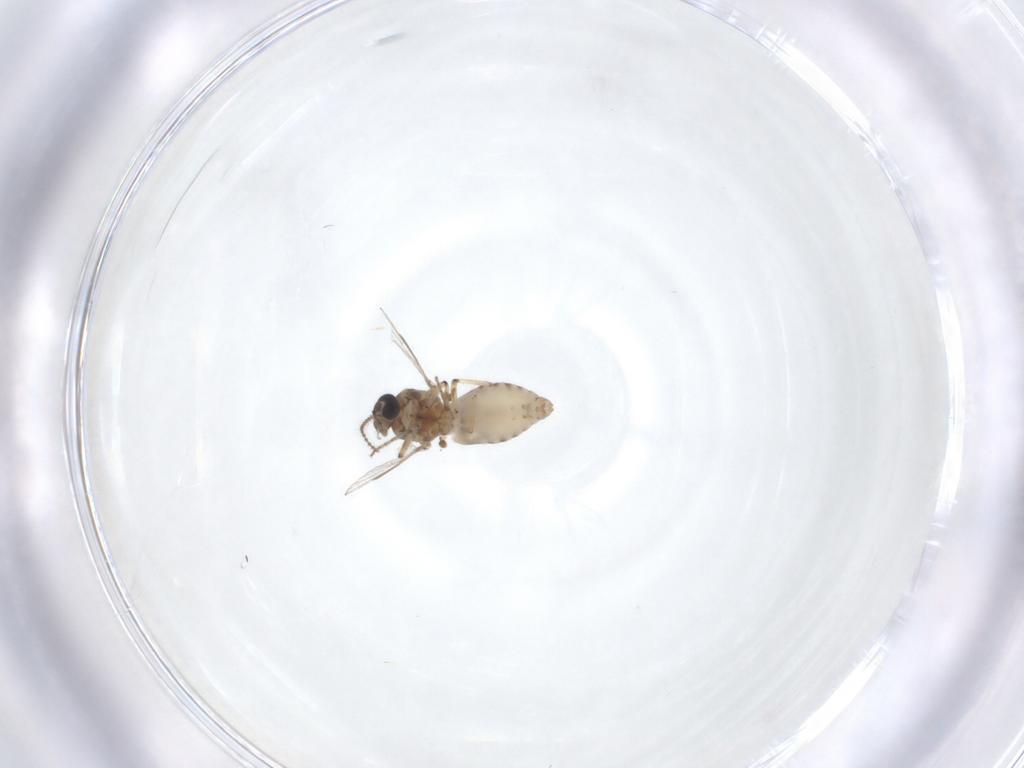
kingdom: Animalia
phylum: Arthropoda
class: Insecta
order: Diptera
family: Ceratopogonidae
